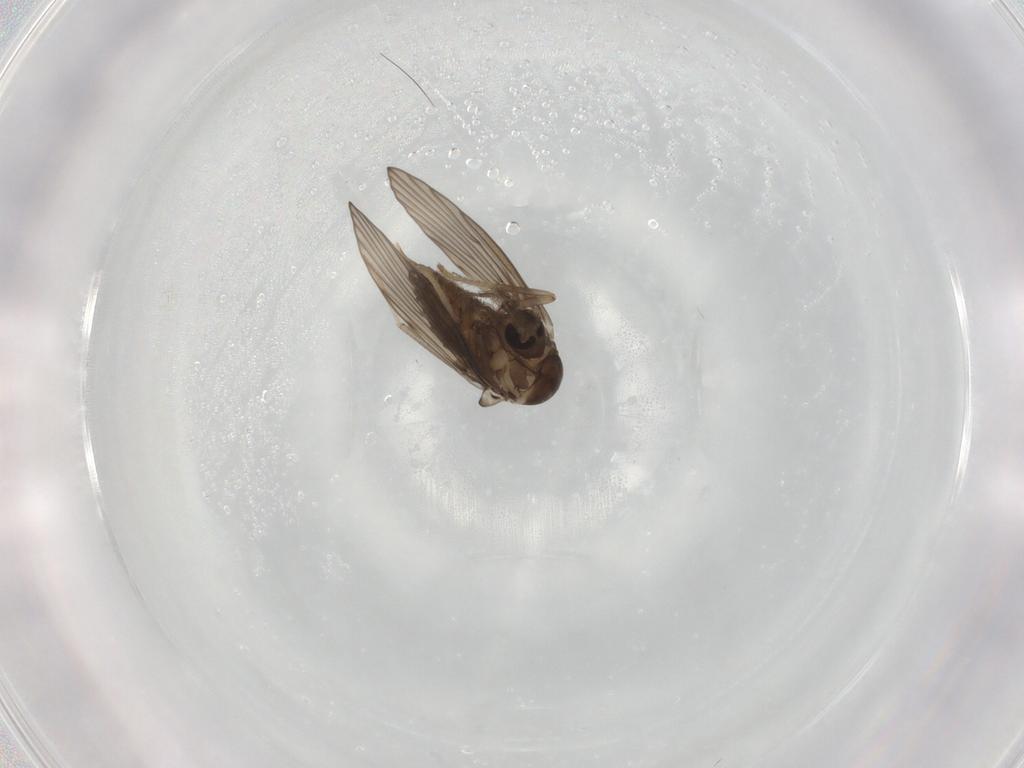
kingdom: Animalia
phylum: Arthropoda
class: Insecta
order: Diptera
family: Psychodidae
